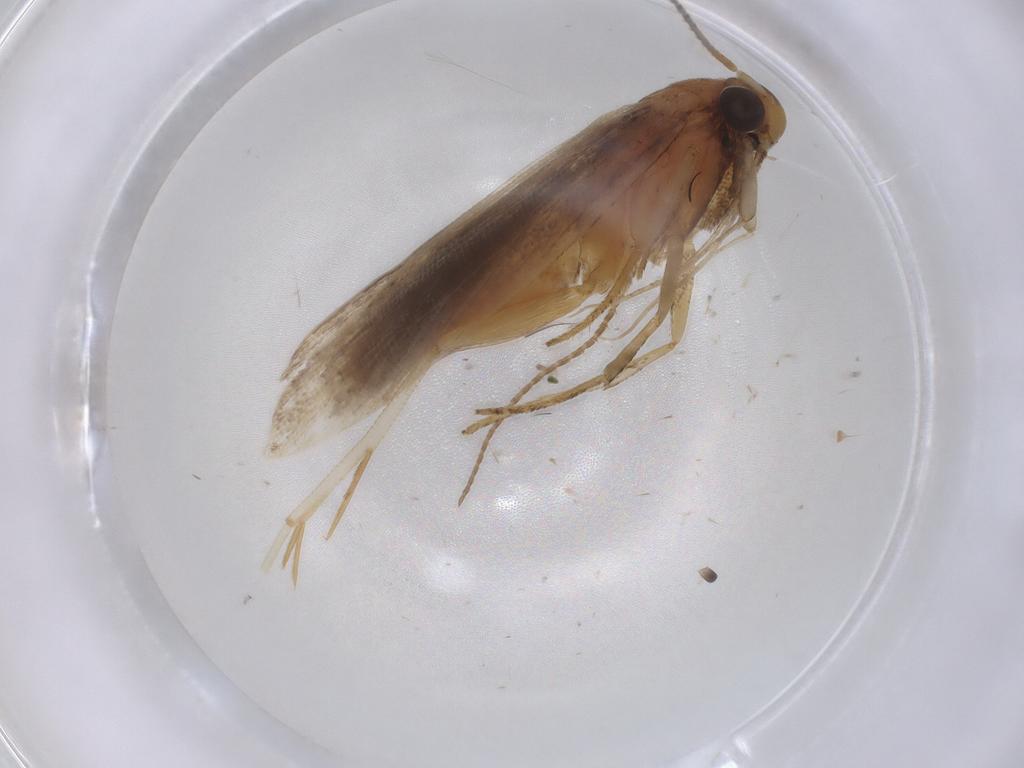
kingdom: Animalia
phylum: Arthropoda
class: Insecta
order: Lepidoptera
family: Gelechiidae
